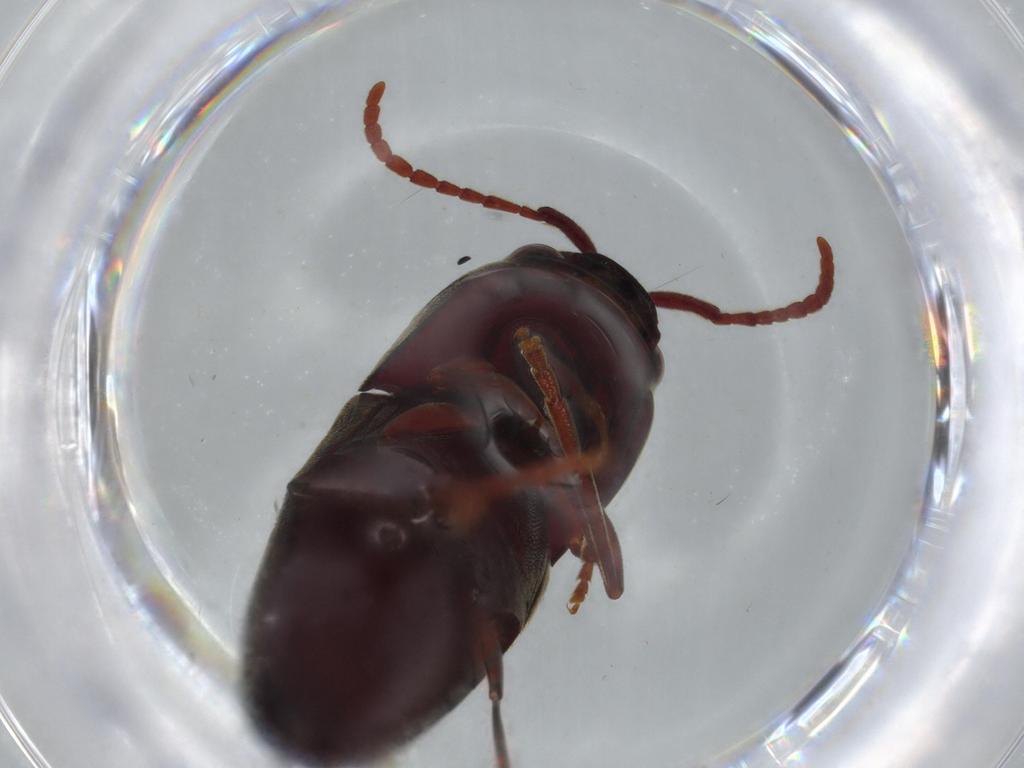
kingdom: Animalia
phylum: Arthropoda
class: Insecta
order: Coleoptera
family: Eucnemidae
